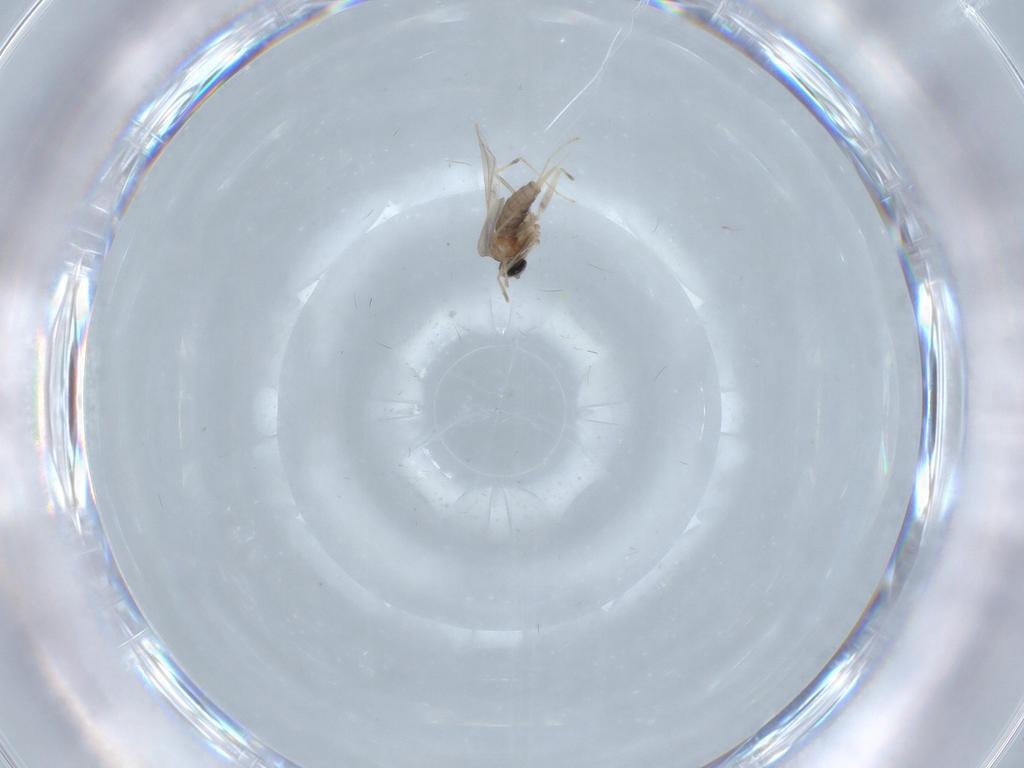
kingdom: Animalia
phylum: Arthropoda
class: Insecta
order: Diptera
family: Cecidomyiidae
